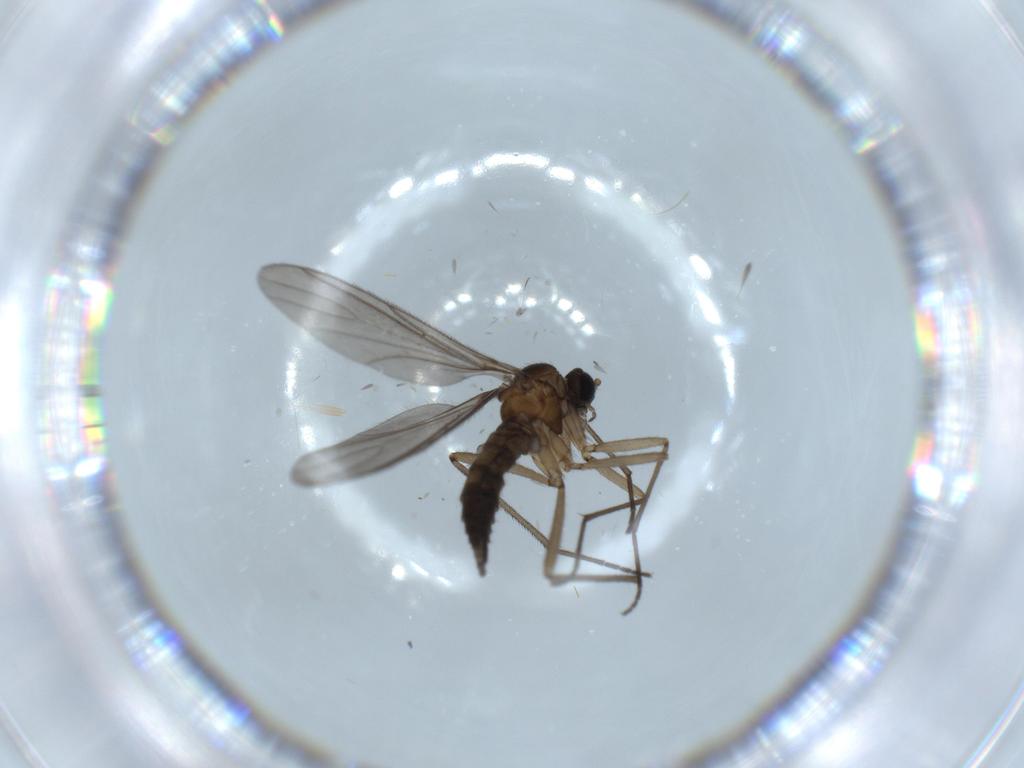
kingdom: Animalia
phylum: Arthropoda
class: Insecta
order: Diptera
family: Sciaridae
